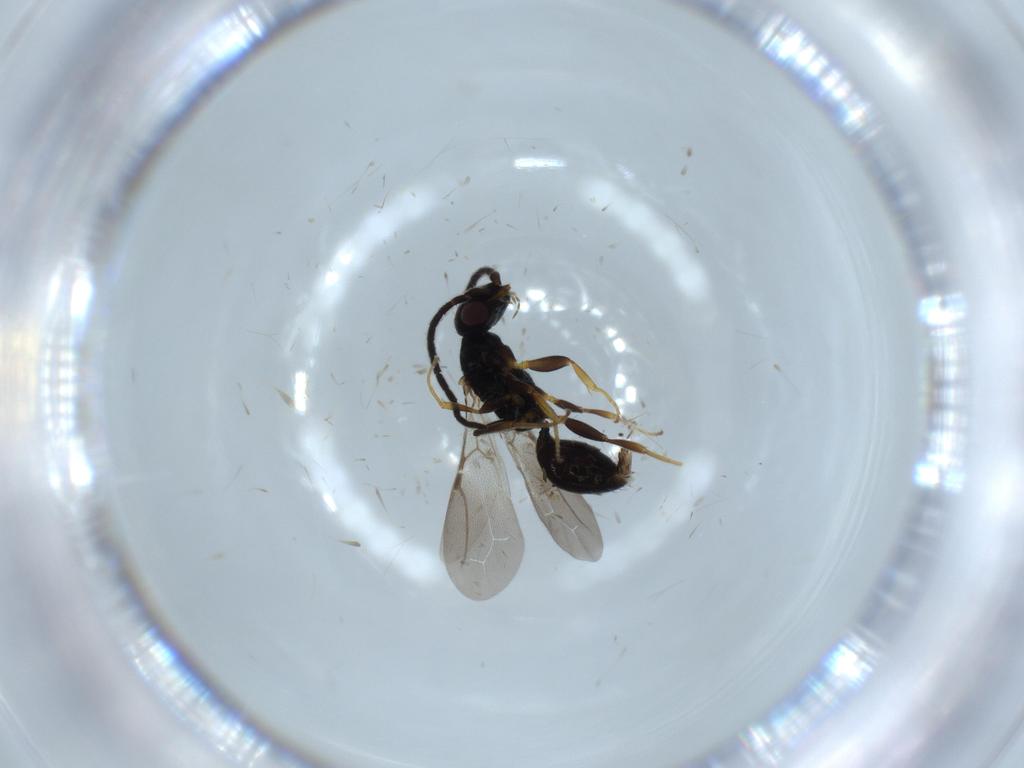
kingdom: Animalia
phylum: Arthropoda
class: Insecta
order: Hymenoptera
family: Bethylidae
